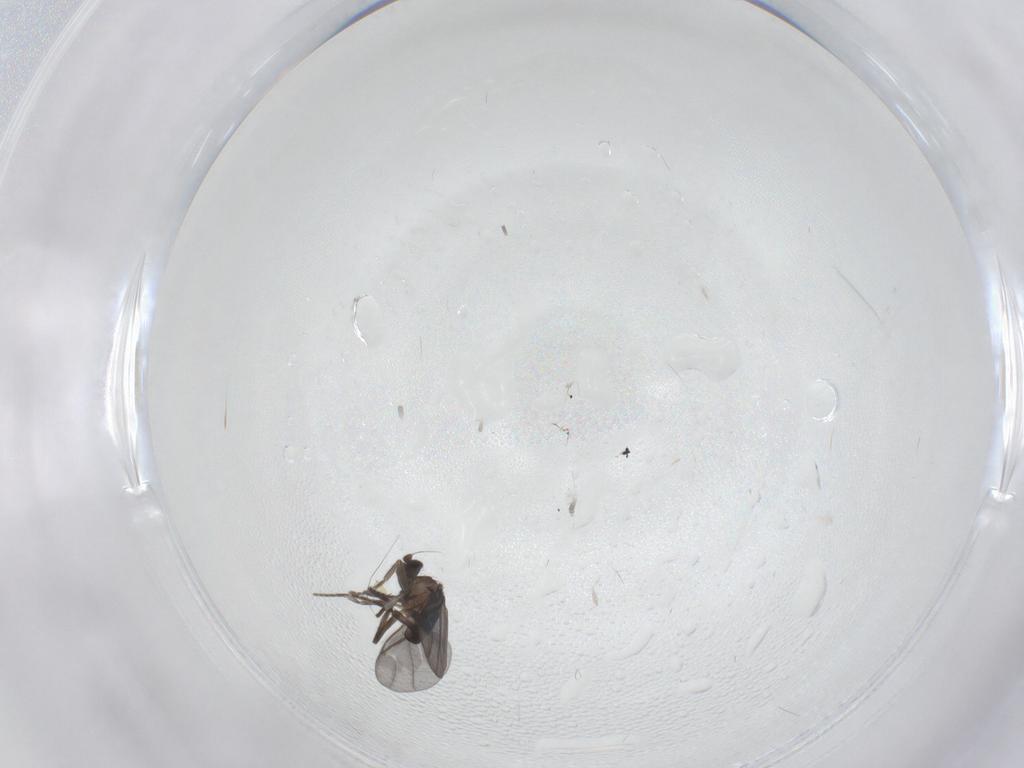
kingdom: Animalia
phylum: Arthropoda
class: Insecta
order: Diptera
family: Phoridae
